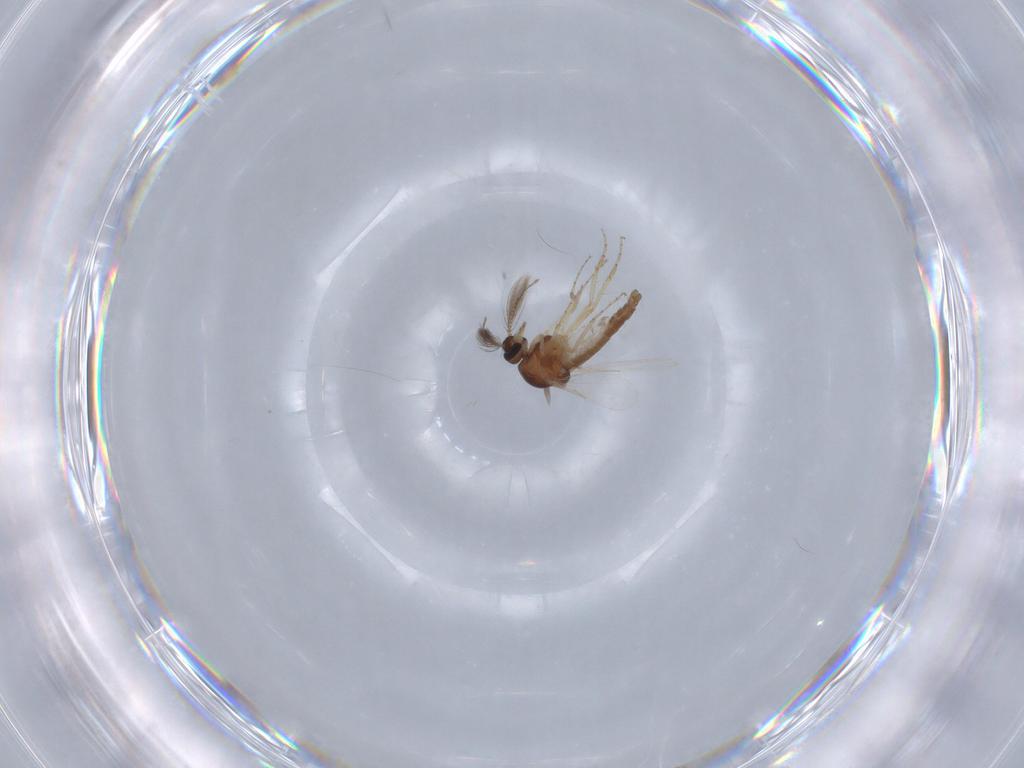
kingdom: Animalia
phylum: Arthropoda
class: Insecta
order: Diptera
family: Ceratopogonidae
